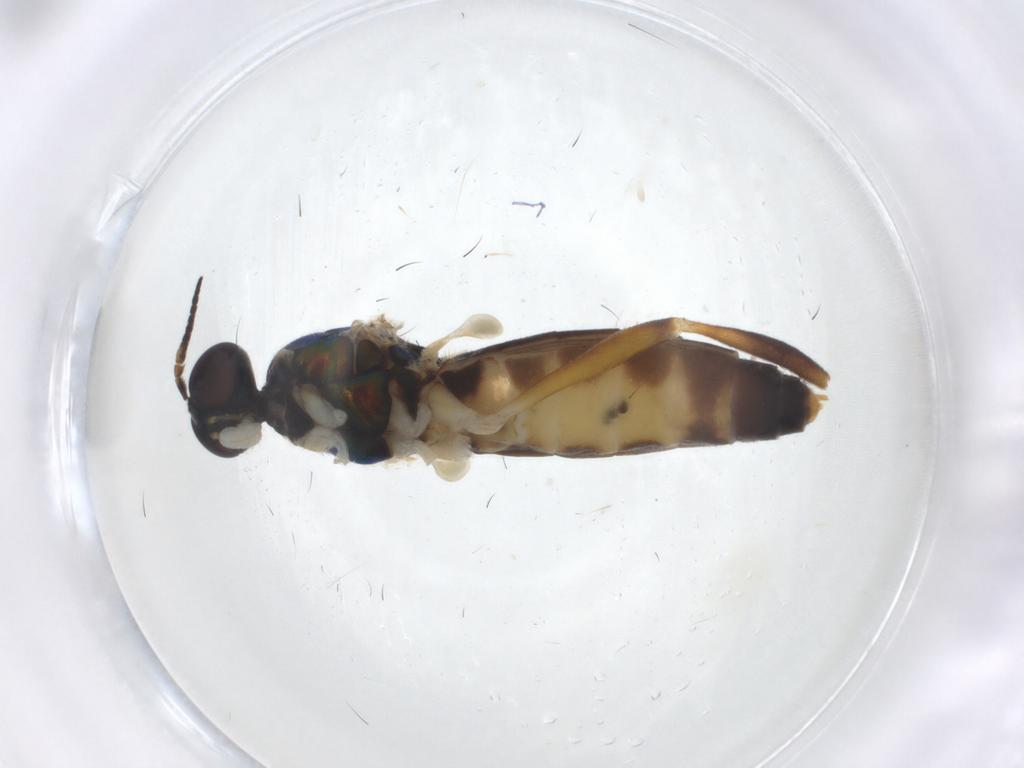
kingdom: Animalia
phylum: Arthropoda
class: Insecta
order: Diptera
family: Stratiomyidae
